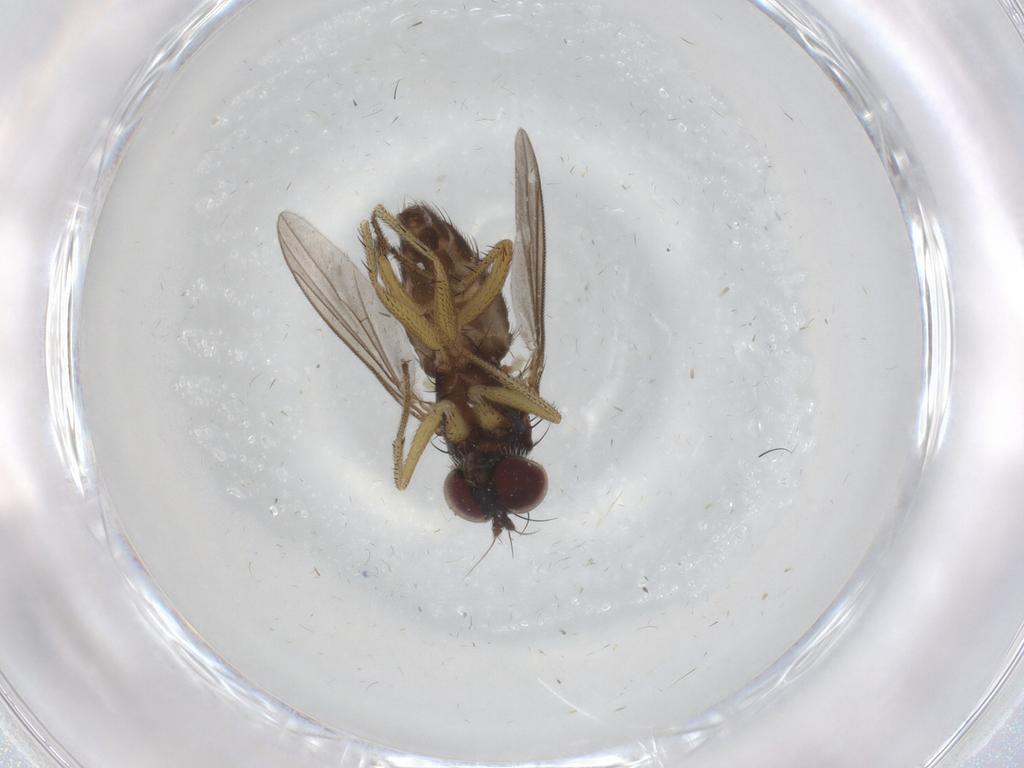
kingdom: Animalia
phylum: Arthropoda
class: Insecta
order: Diptera
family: Dolichopodidae
